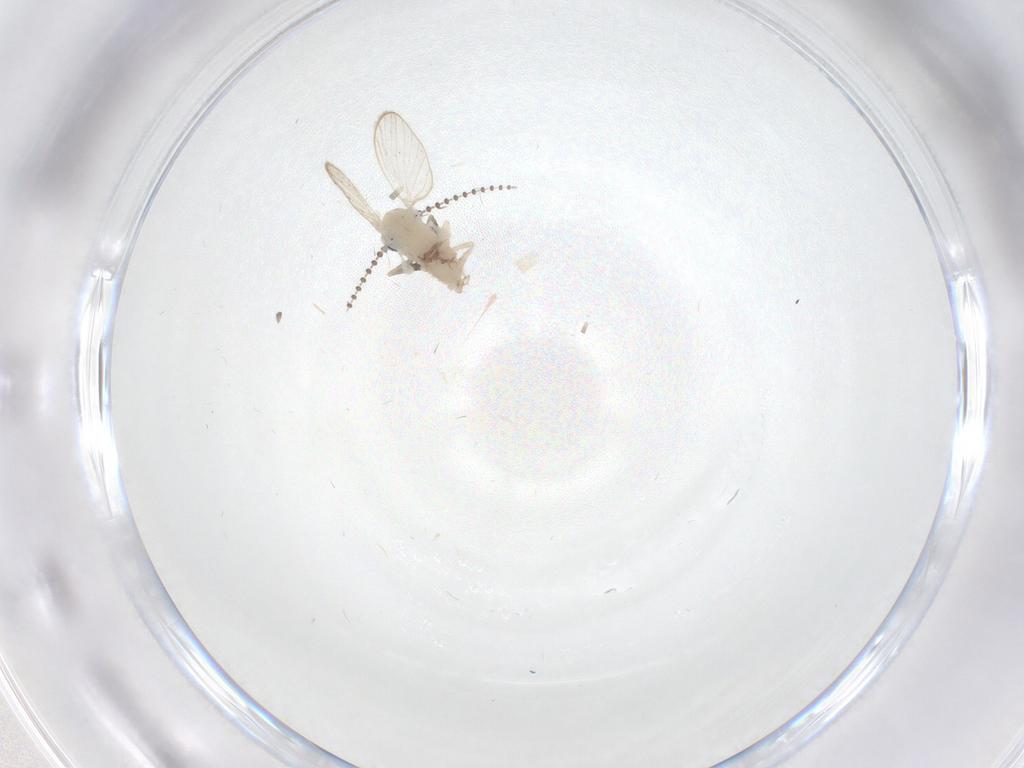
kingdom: Animalia
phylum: Arthropoda
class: Insecta
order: Diptera
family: Psychodidae
